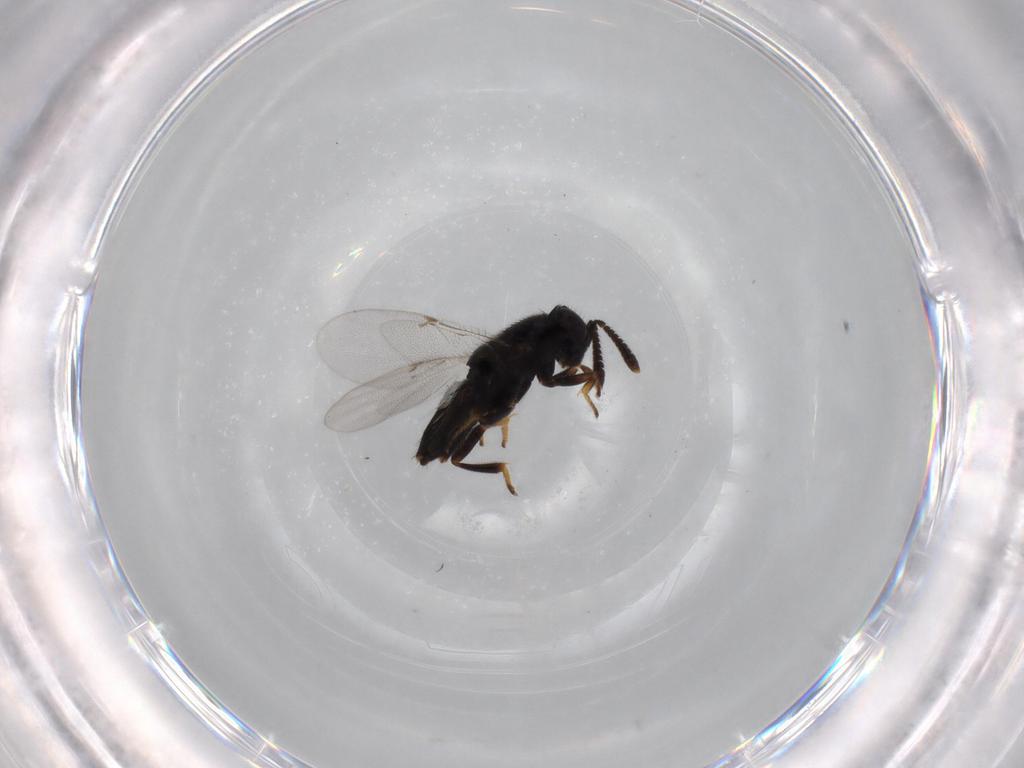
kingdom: Animalia
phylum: Arthropoda
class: Insecta
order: Hymenoptera
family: Encyrtidae
